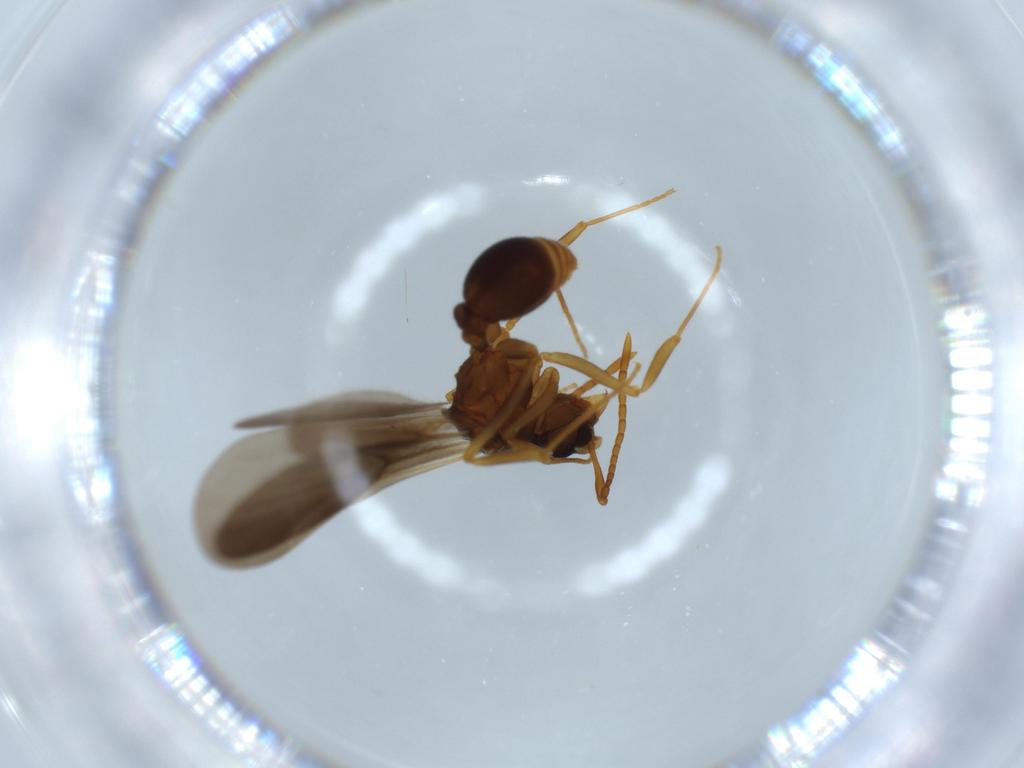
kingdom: Animalia
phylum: Arthropoda
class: Insecta
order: Hymenoptera
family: Formicidae
